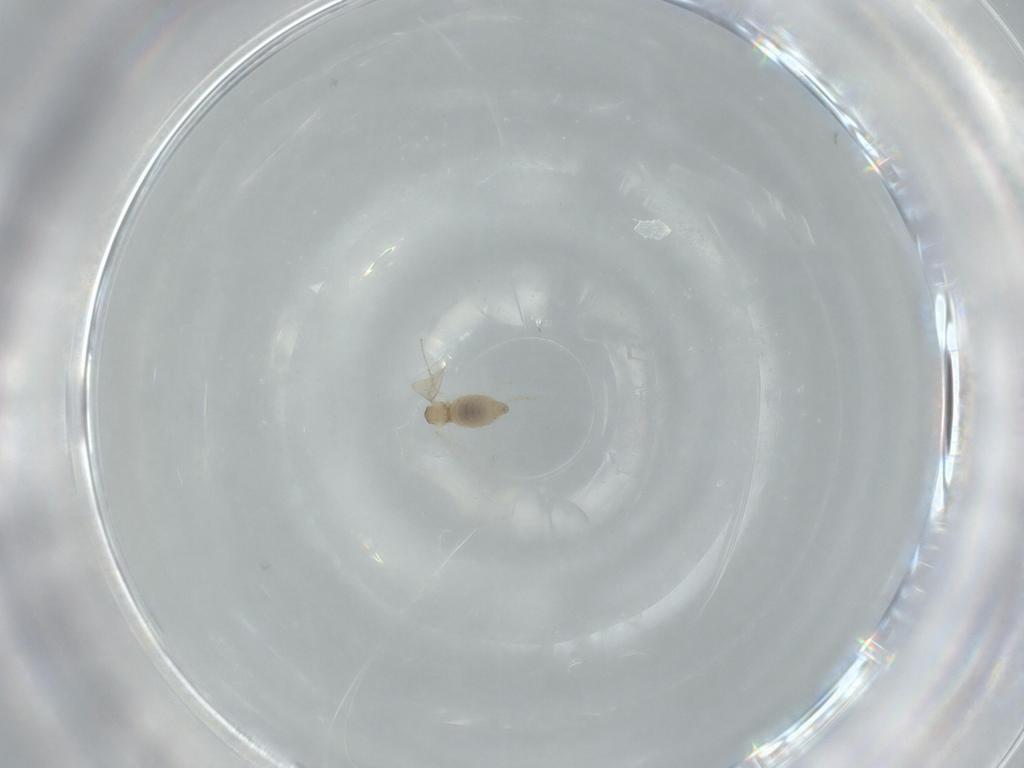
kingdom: Animalia
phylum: Arthropoda
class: Insecta
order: Diptera
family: Cecidomyiidae
